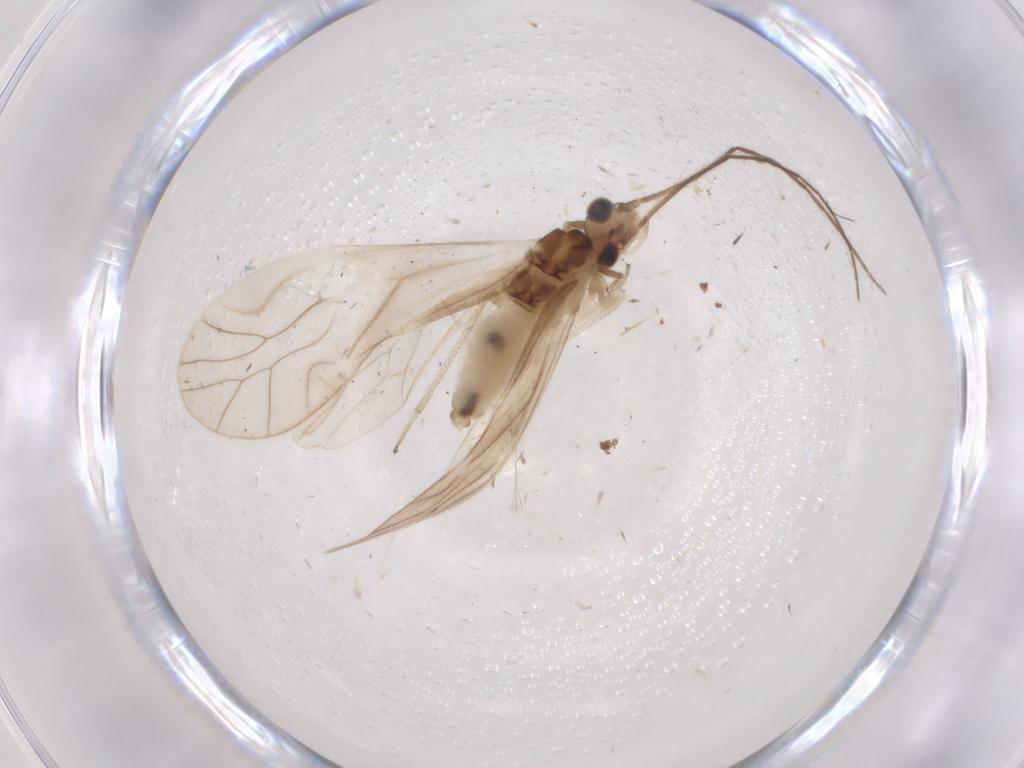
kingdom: Animalia
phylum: Arthropoda
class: Insecta
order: Psocodea
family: Caeciliusidae
